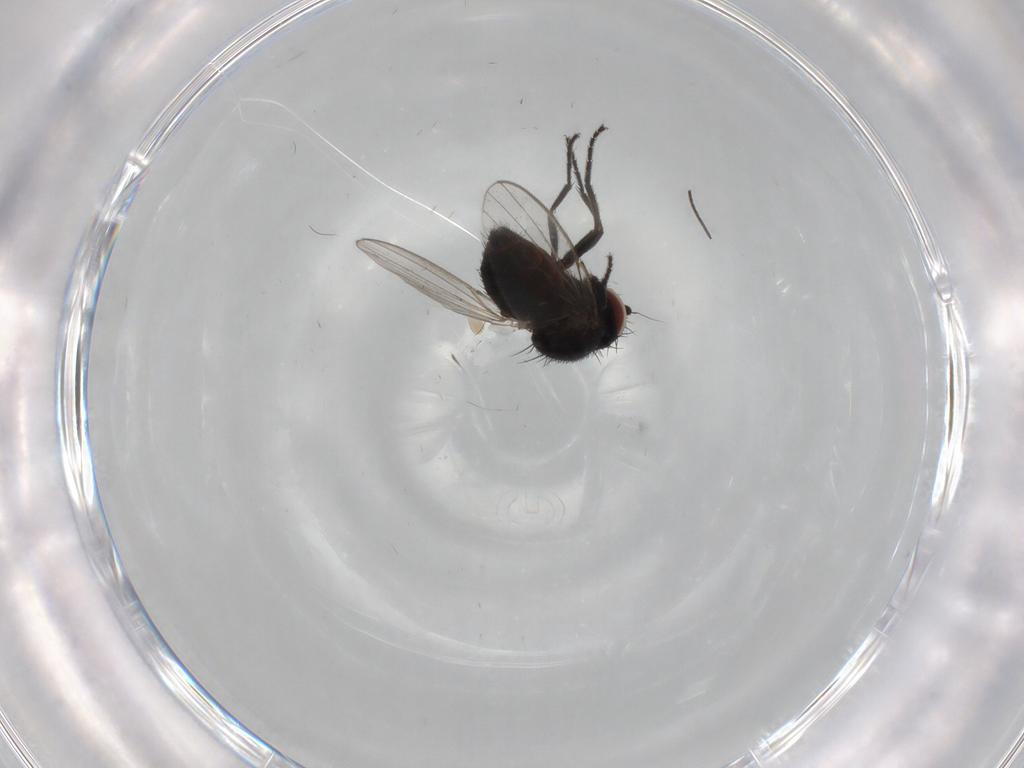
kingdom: Animalia
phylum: Arthropoda
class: Insecta
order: Diptera
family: Milichiidae
